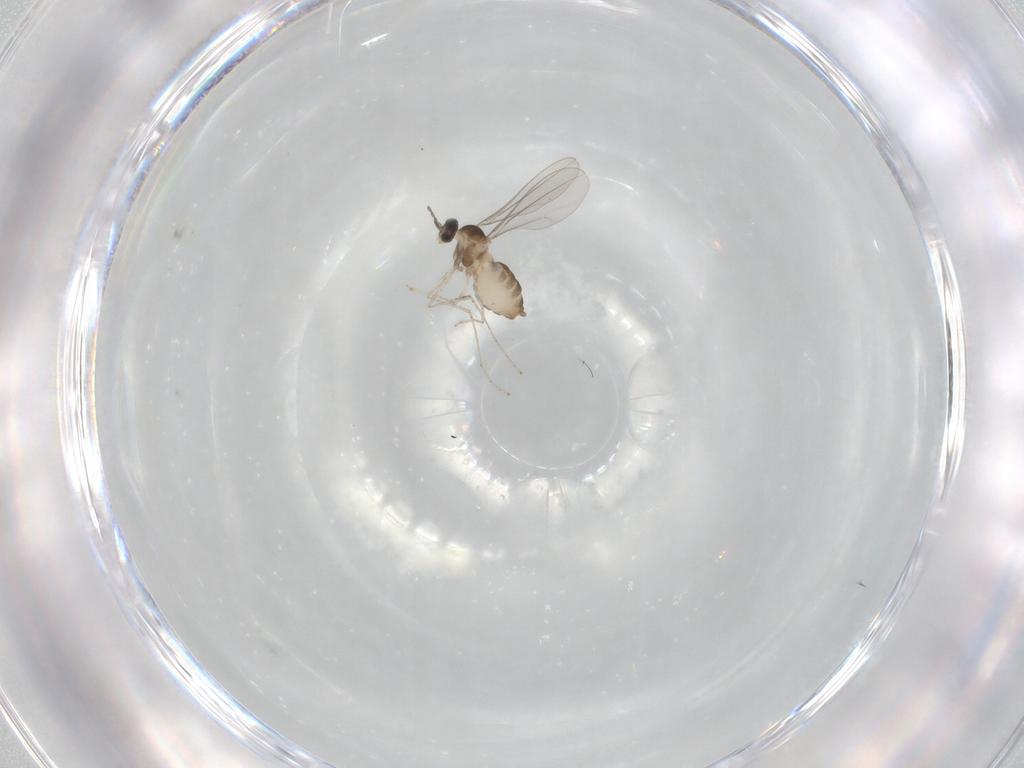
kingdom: Animalia
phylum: Arthropoda
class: Insecta
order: Diptera
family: Cecidomyiidae
